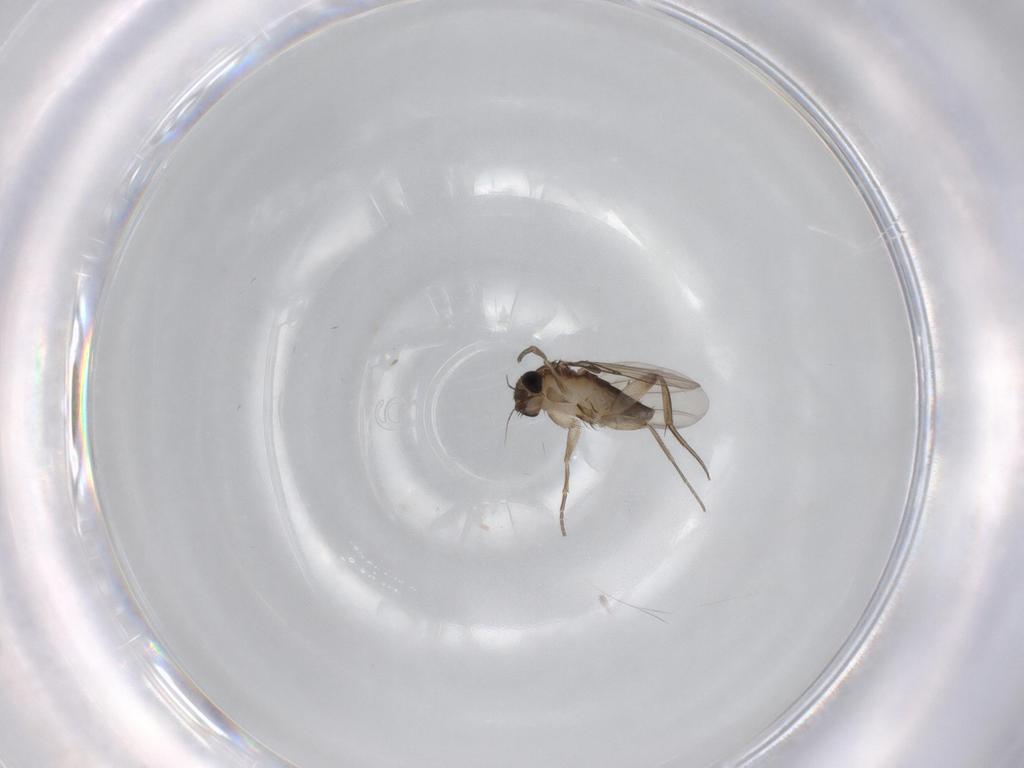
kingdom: Animalia
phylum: Arthropoda
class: Insecta
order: Diptera
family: Phoridae
